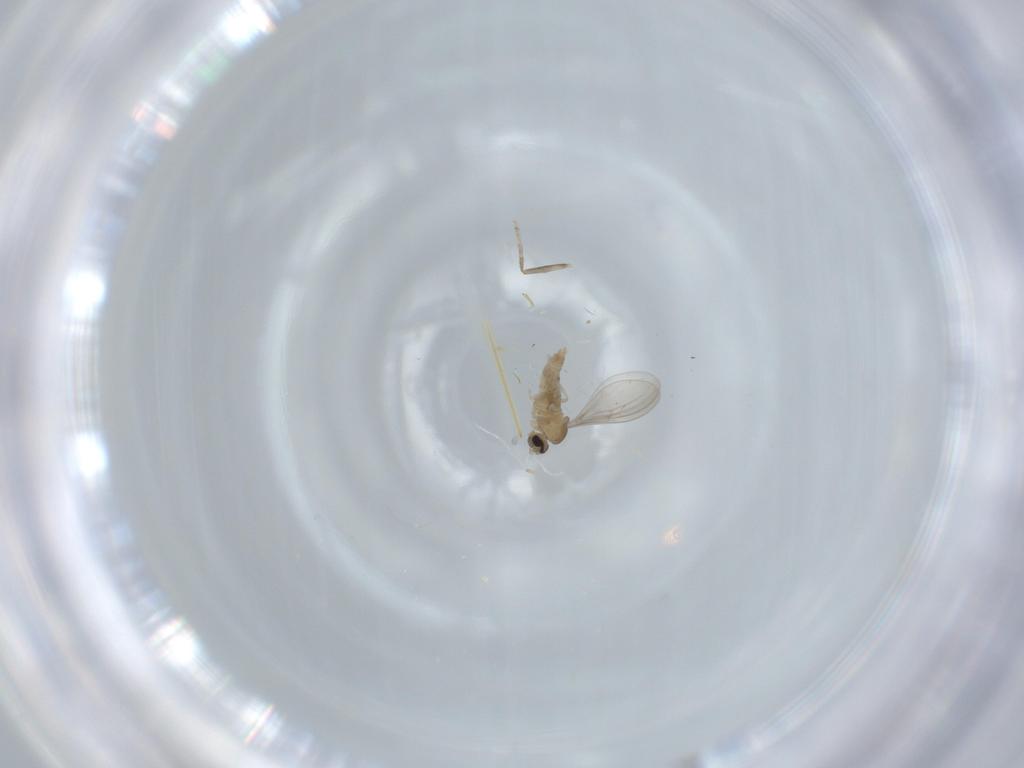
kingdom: Animalia
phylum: Arthropoda
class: Insecta
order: Diptera
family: Cecidomyiidae
